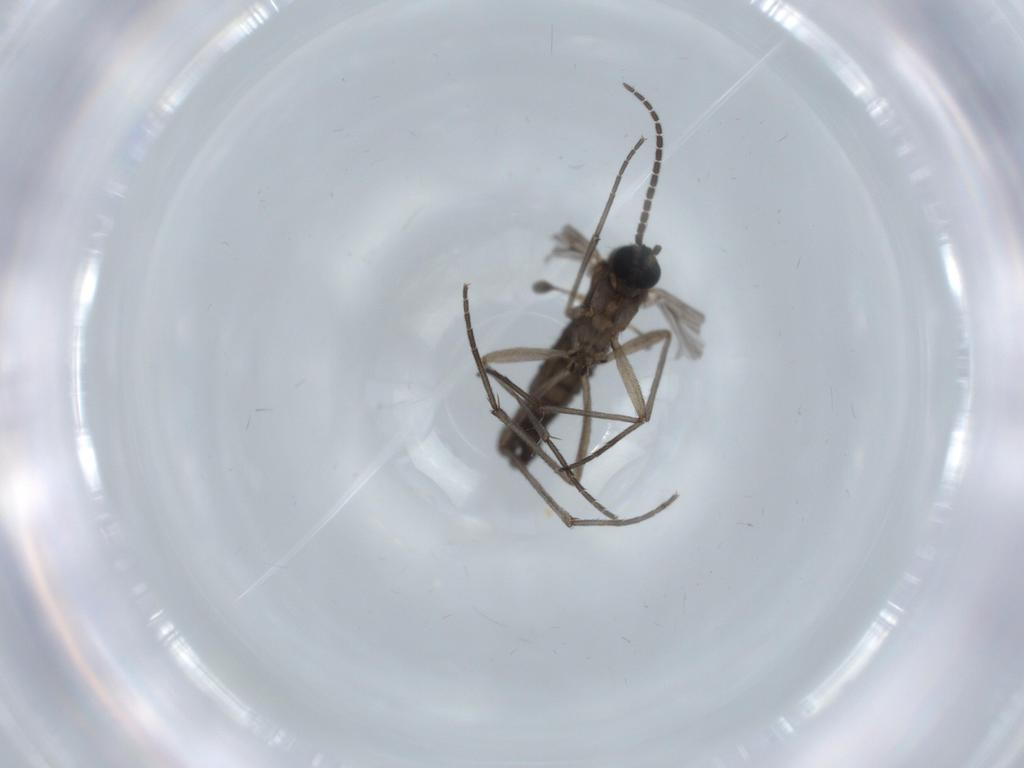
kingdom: Animalia
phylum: Arthropoda
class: Insecta
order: Diptera
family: Sciaridae
